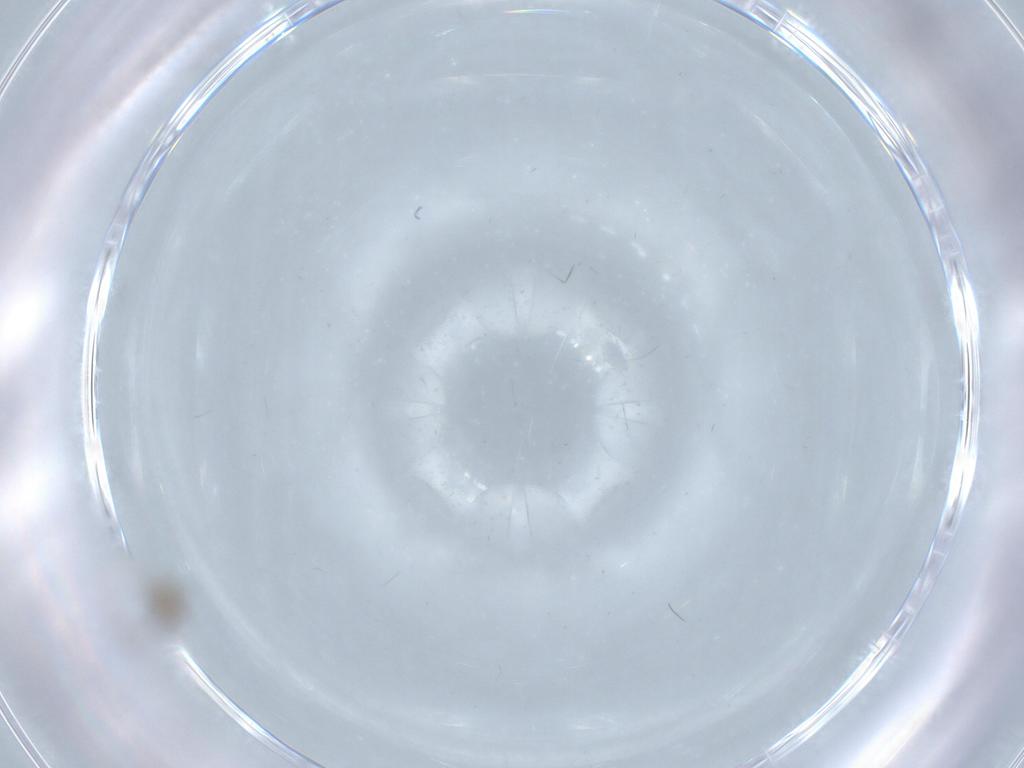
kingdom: Animalia
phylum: Arthropoda
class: Insecta
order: Diptera
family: Cecidomyiidae
